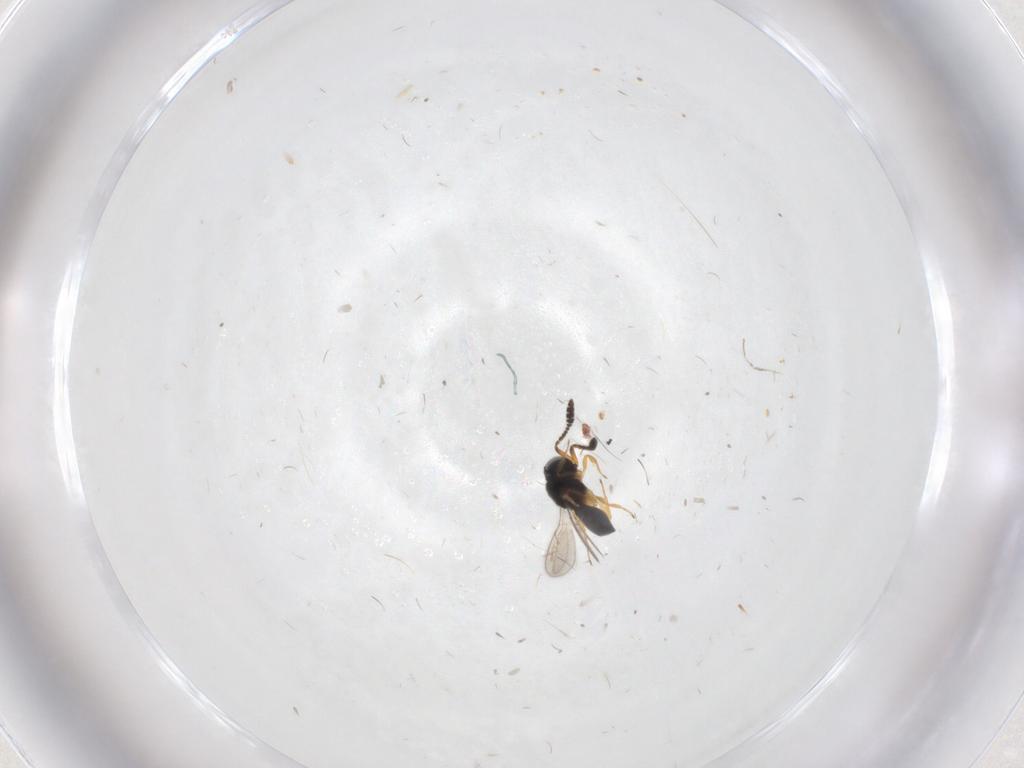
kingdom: Animalia
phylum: Arthropoda
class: Insecta
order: Hymenoptera
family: Scelionidae
